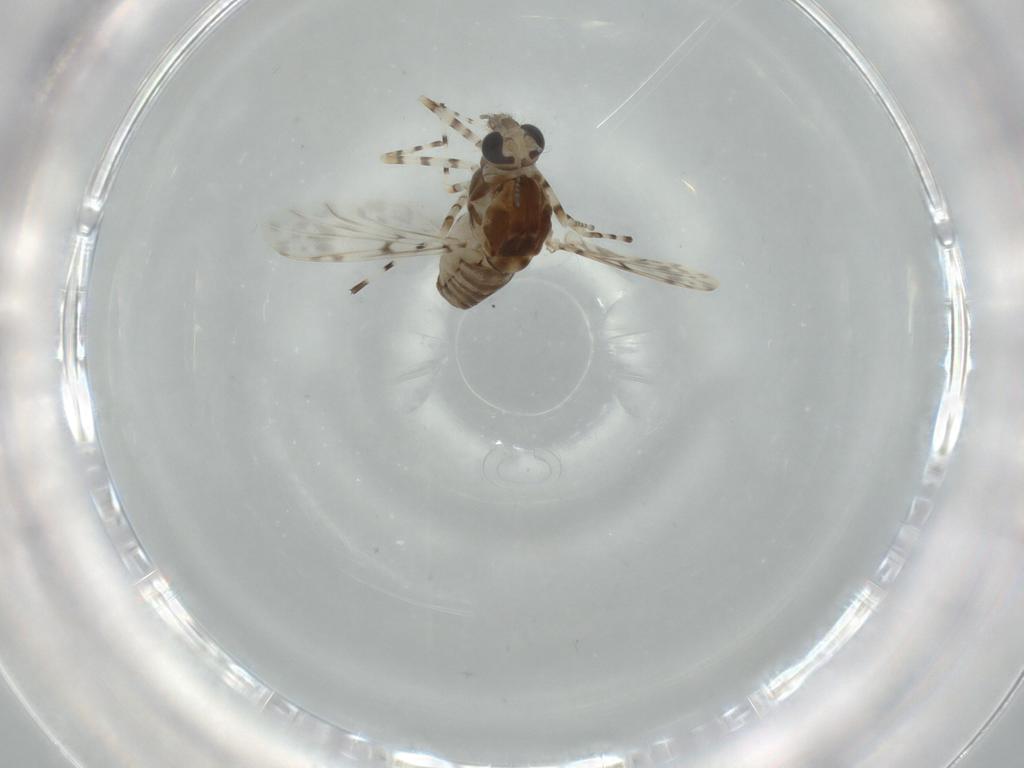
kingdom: Animalia
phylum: Arthropoda
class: Insecta
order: Diptera
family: Chironomidae
